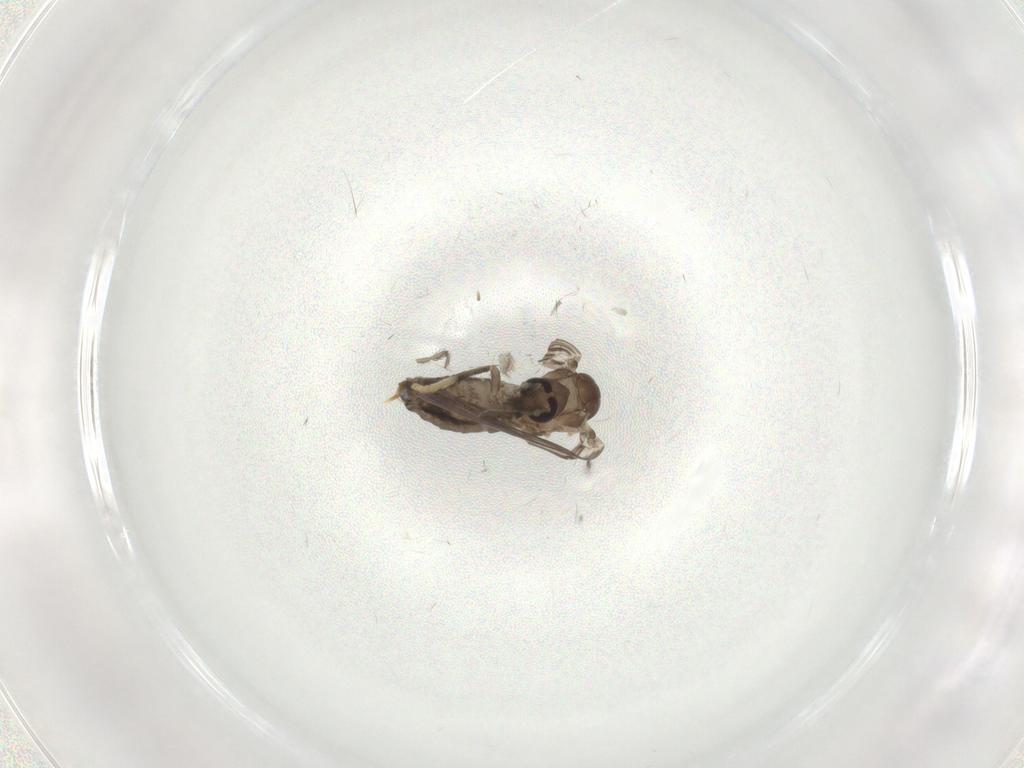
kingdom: Animalia
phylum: Arthropoda
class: Insecta
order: Diptera
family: Psychodidae
